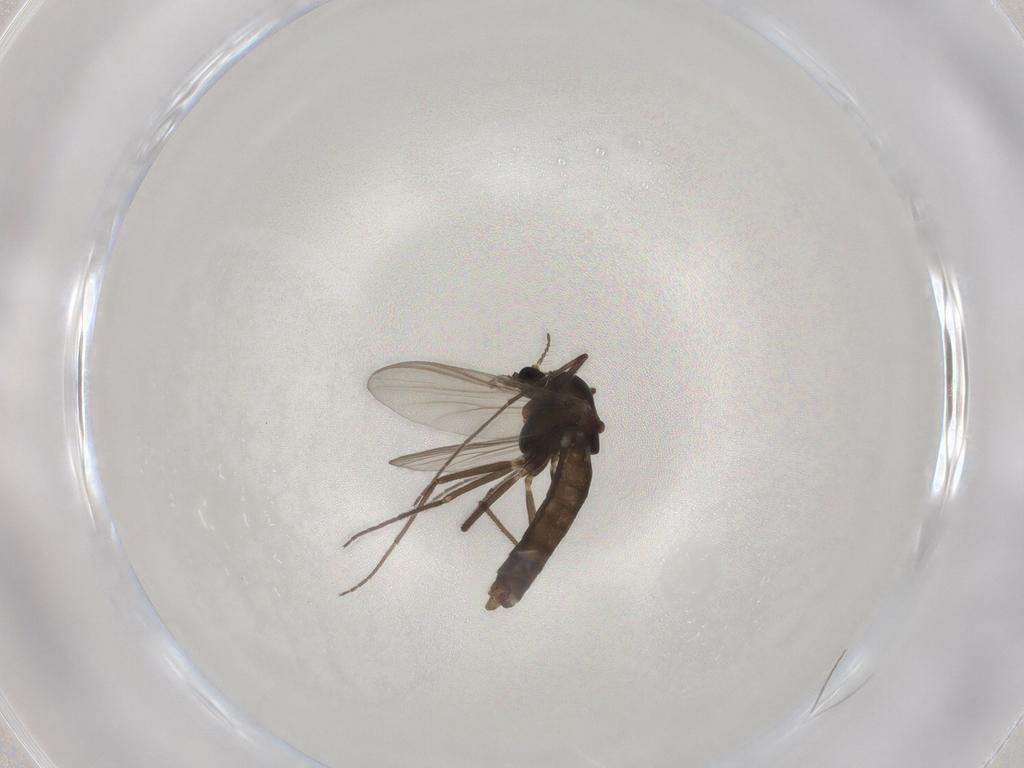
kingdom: Animalia
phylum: Arthropoda
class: Insecta
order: Diptera
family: Chironomidae
